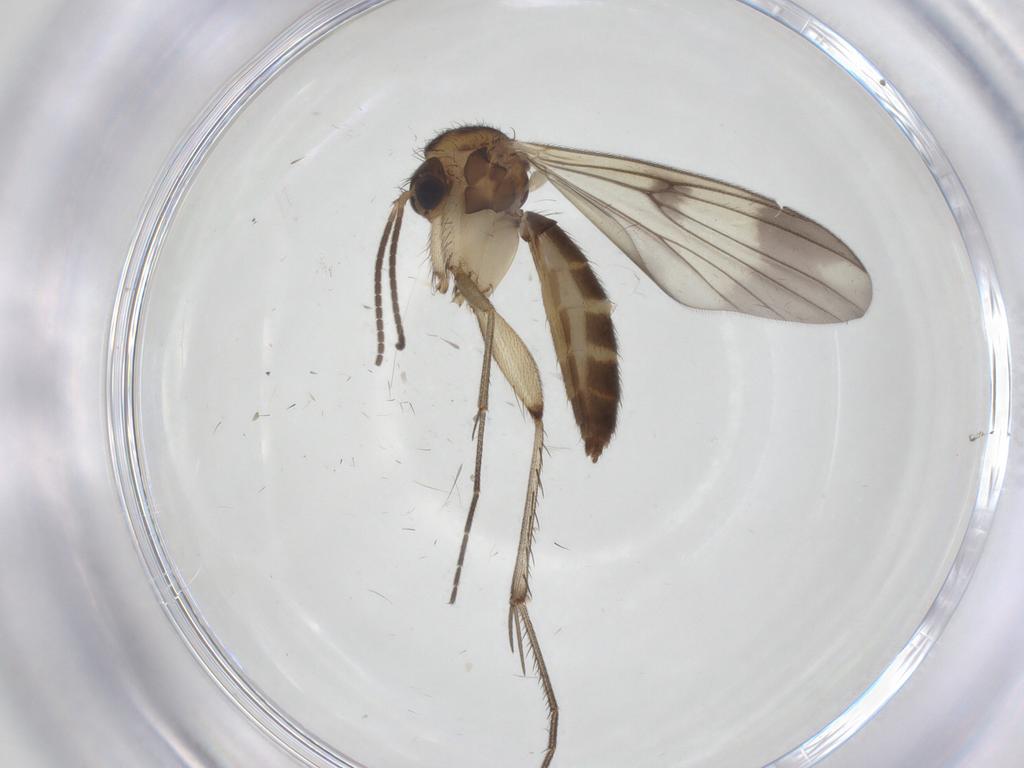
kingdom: Animalia
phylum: Arthropoda
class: Insecta
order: Diptera
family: Mycetophilidae
